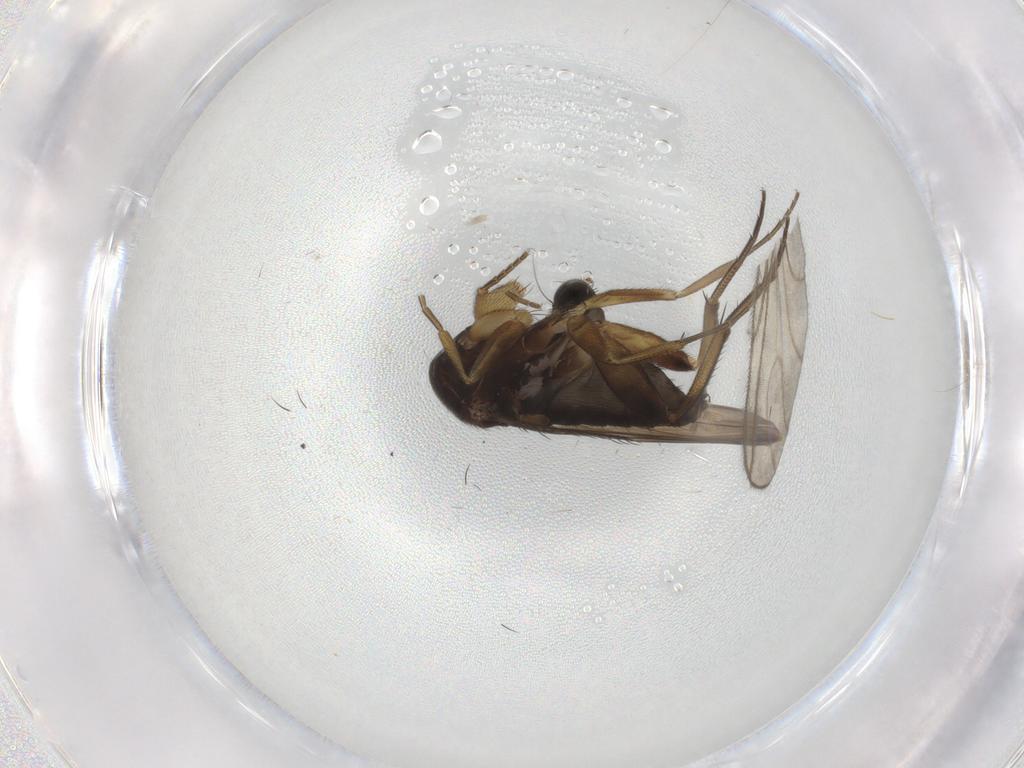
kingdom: Animalia
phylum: Arthropoda
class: Insecta
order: Diptera
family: Phoridae
